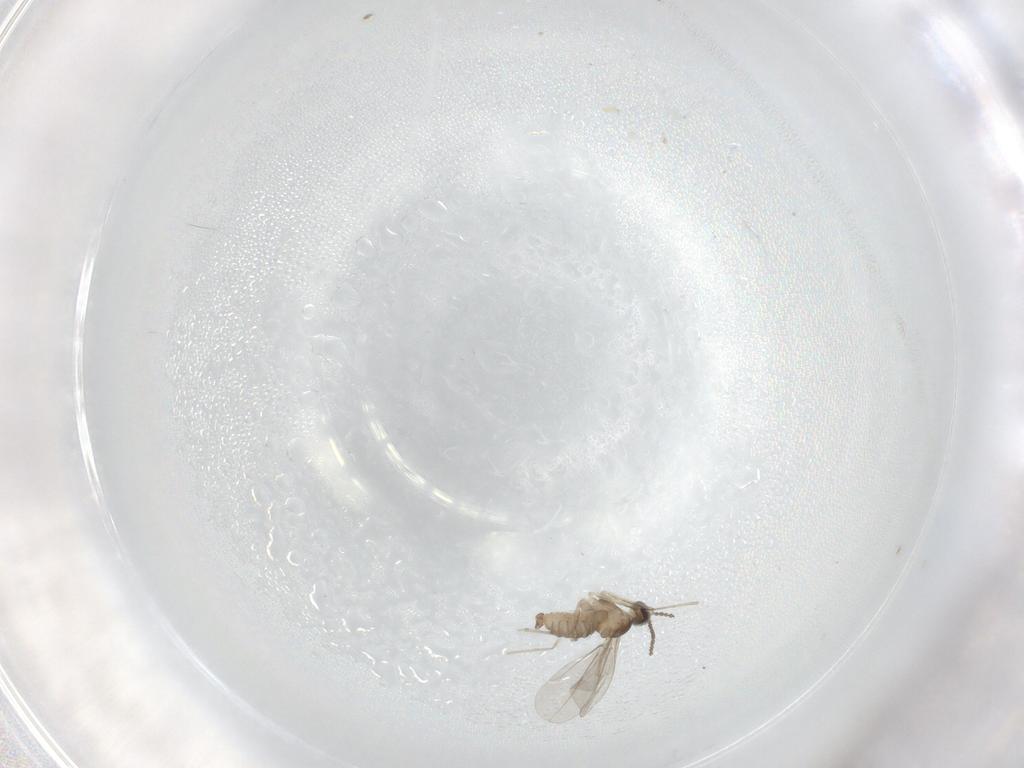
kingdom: Animalia
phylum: Arthropoda
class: Insecta
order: Diptera
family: Cecidomyiidae
